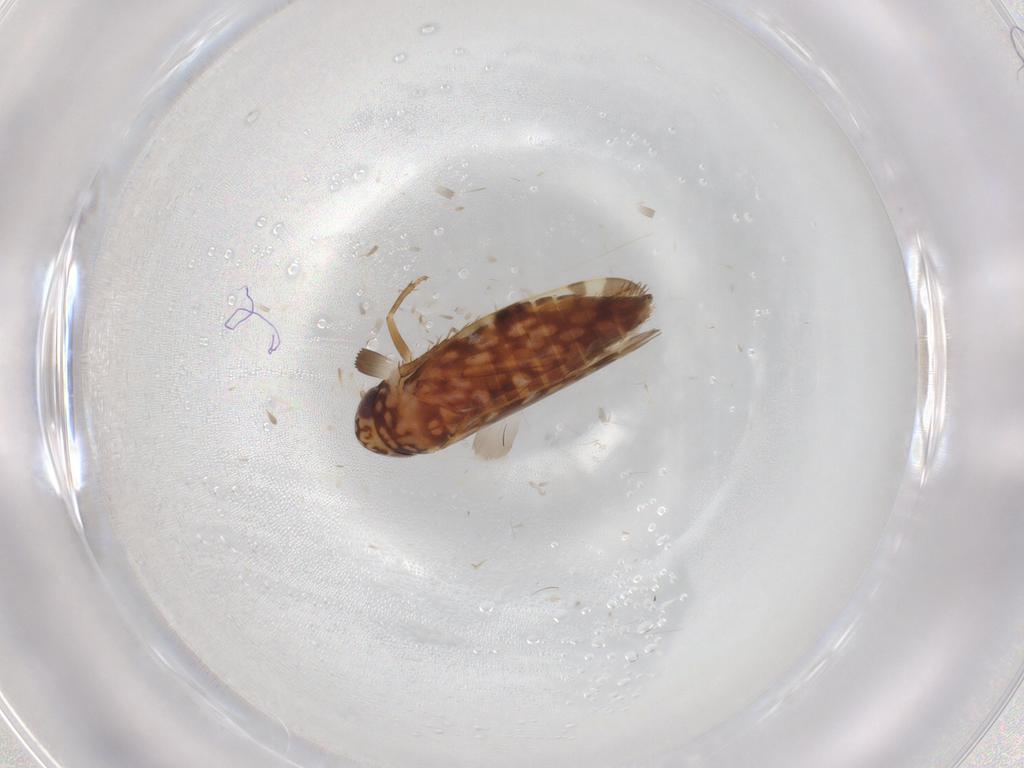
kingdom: Animalia
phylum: Arthropoda
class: Insecta
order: Hemiptera
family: Cicadellidae
